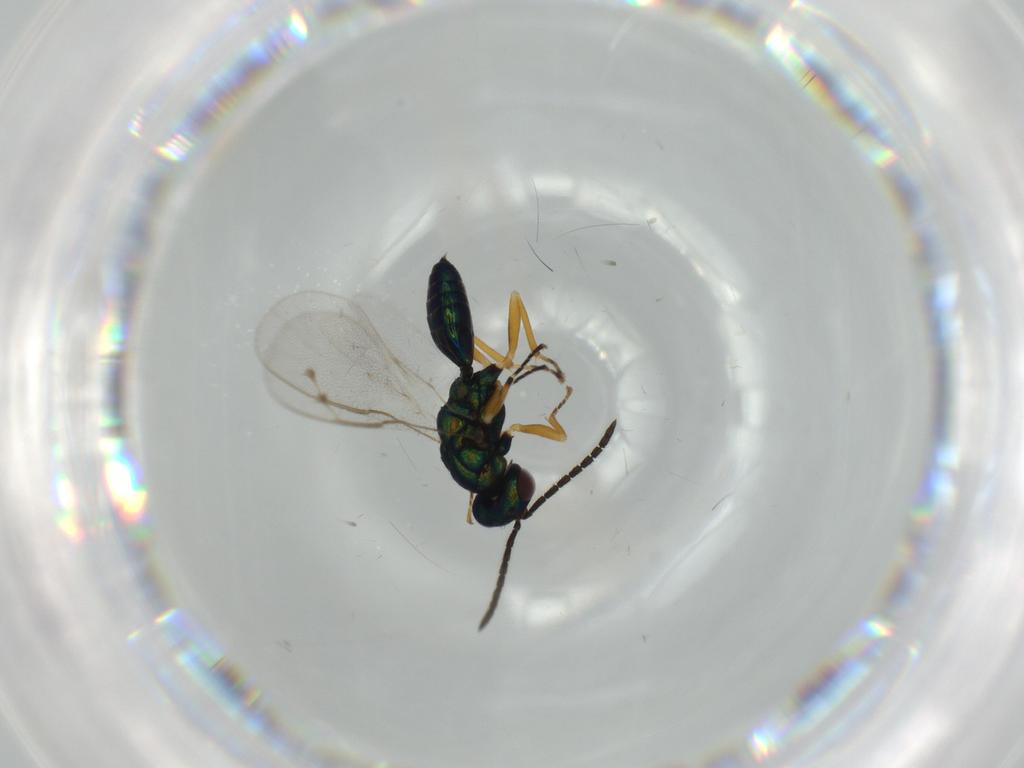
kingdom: Animalia
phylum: Arthropoda
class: Insecta
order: Hymenoptera
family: Pteromalidae
